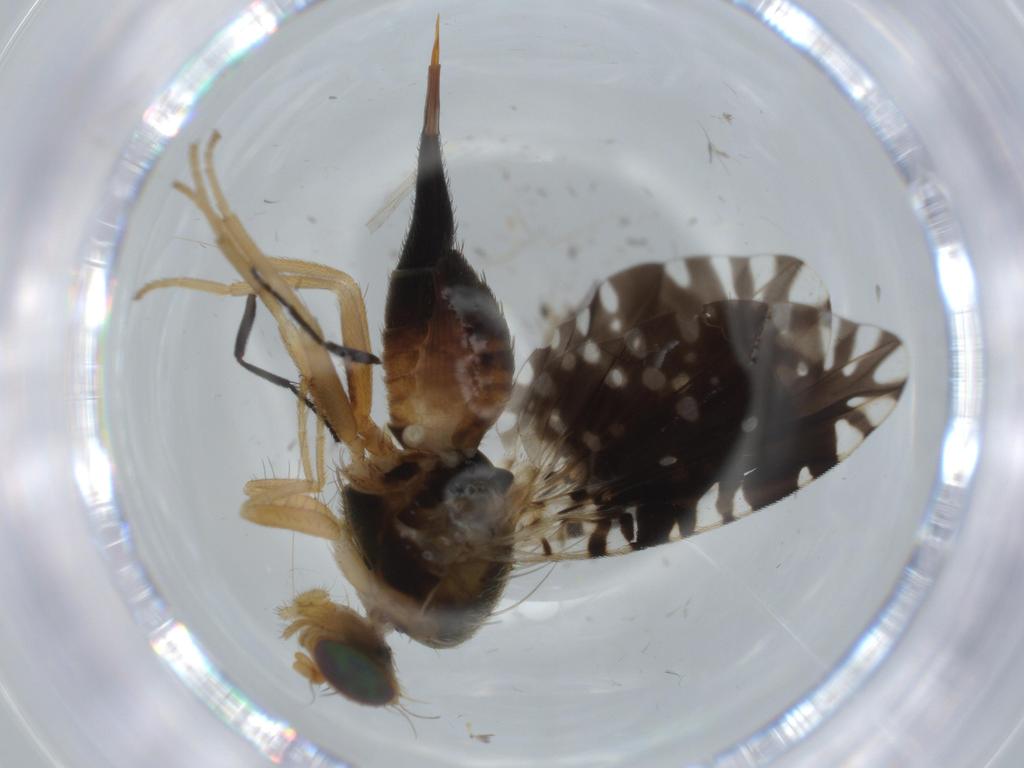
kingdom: Animalia
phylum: Arthropoda
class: Insecta
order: Diptera
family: Tephritidae
